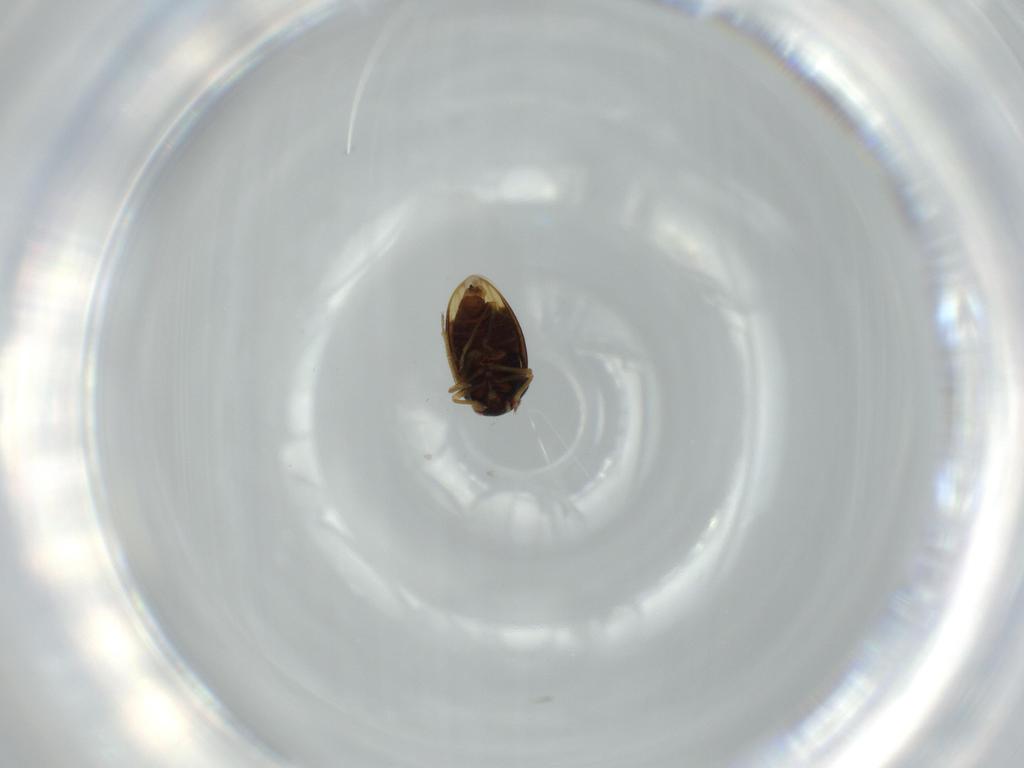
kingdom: Animalia
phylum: Arthropoda
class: Insecta
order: Hemiptera
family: Schizopteridae
